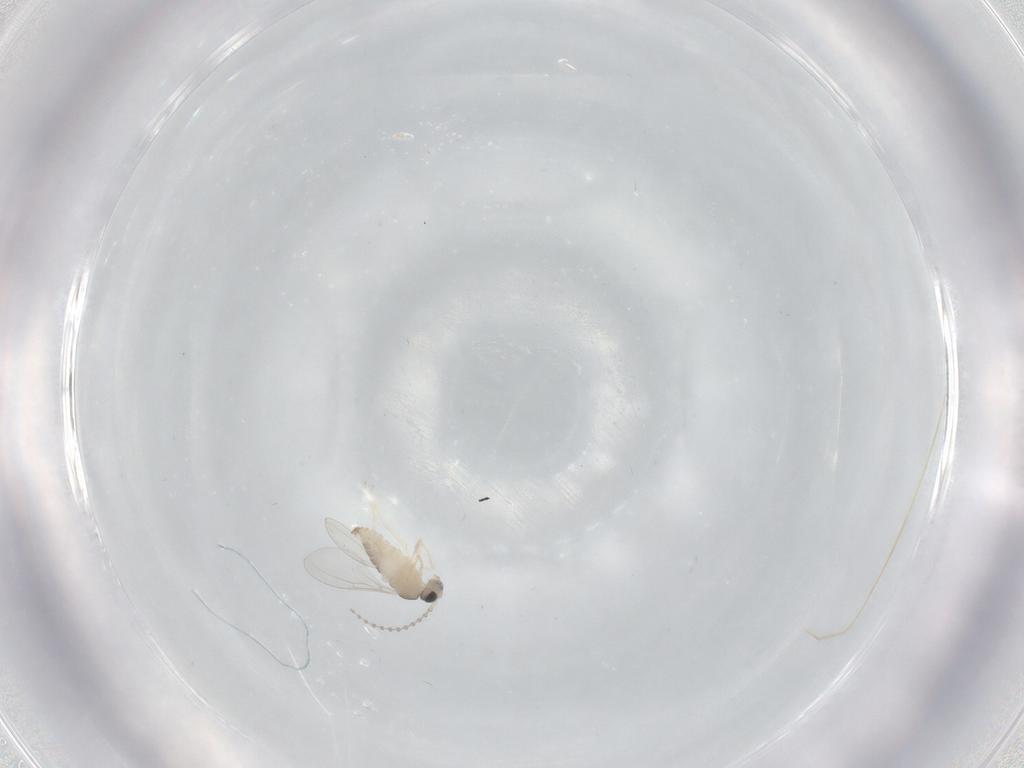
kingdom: Animalia
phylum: Arthropoda
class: Insecta
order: Diptera
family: Cecidomyiidae
